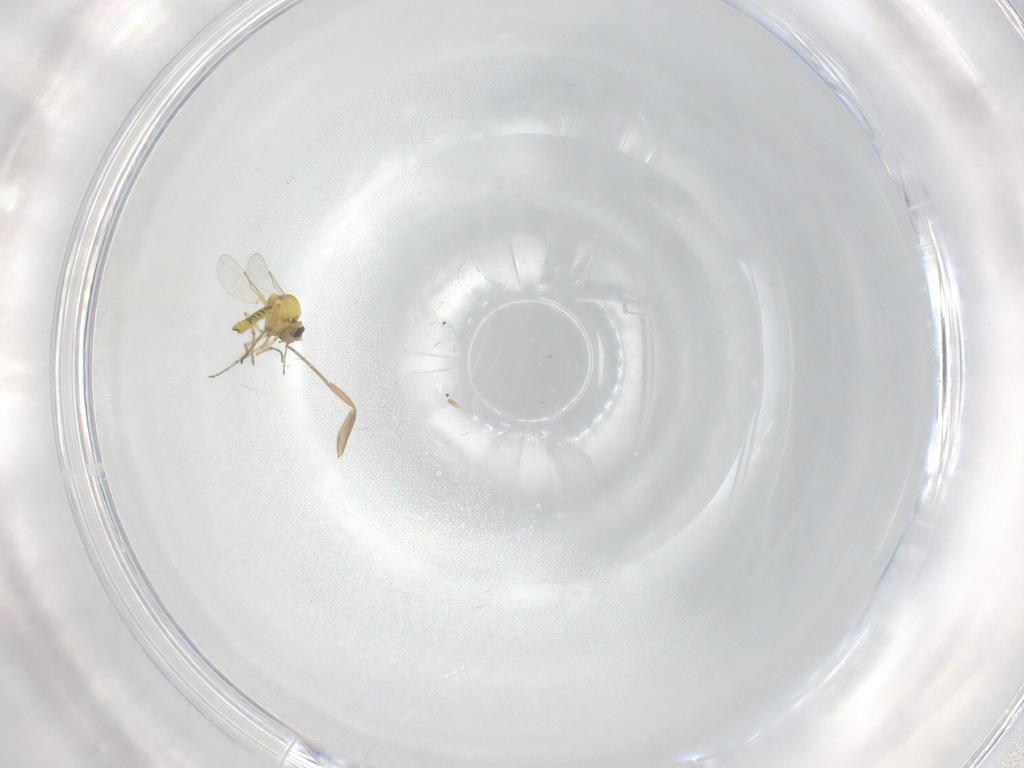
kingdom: Animalia
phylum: Arthropoda
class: Insecta
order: Diptera
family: Ceratopogonidae
